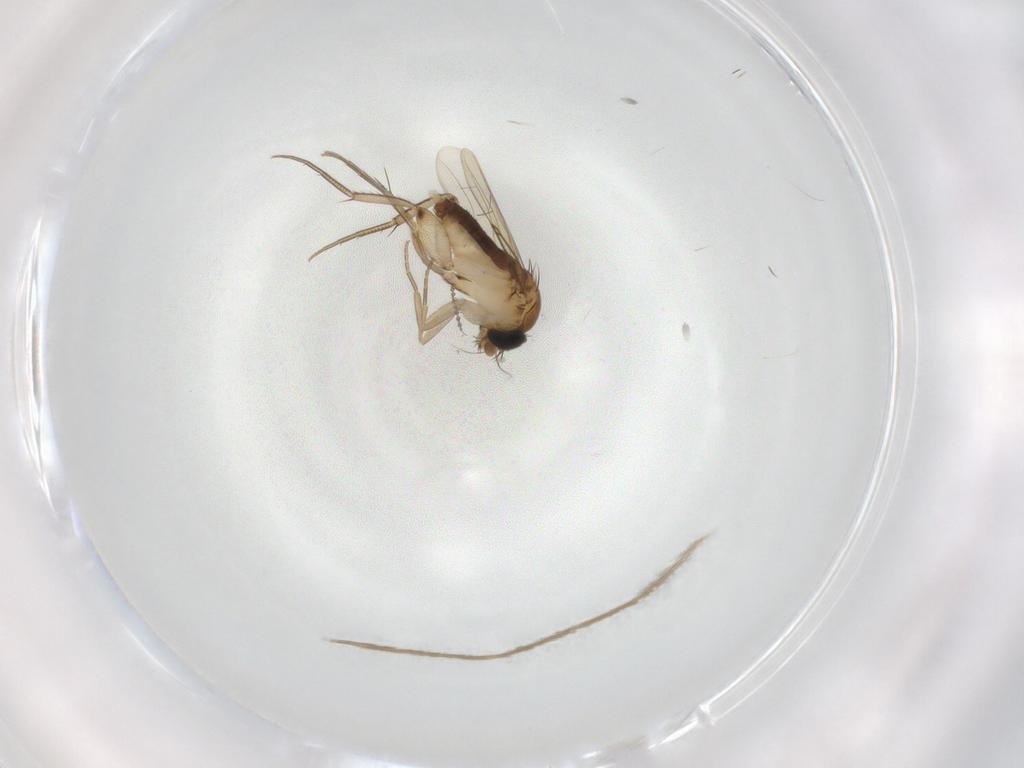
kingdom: Animalia
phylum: Arthropoda
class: Insecta
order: Diptera
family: Phoridae
